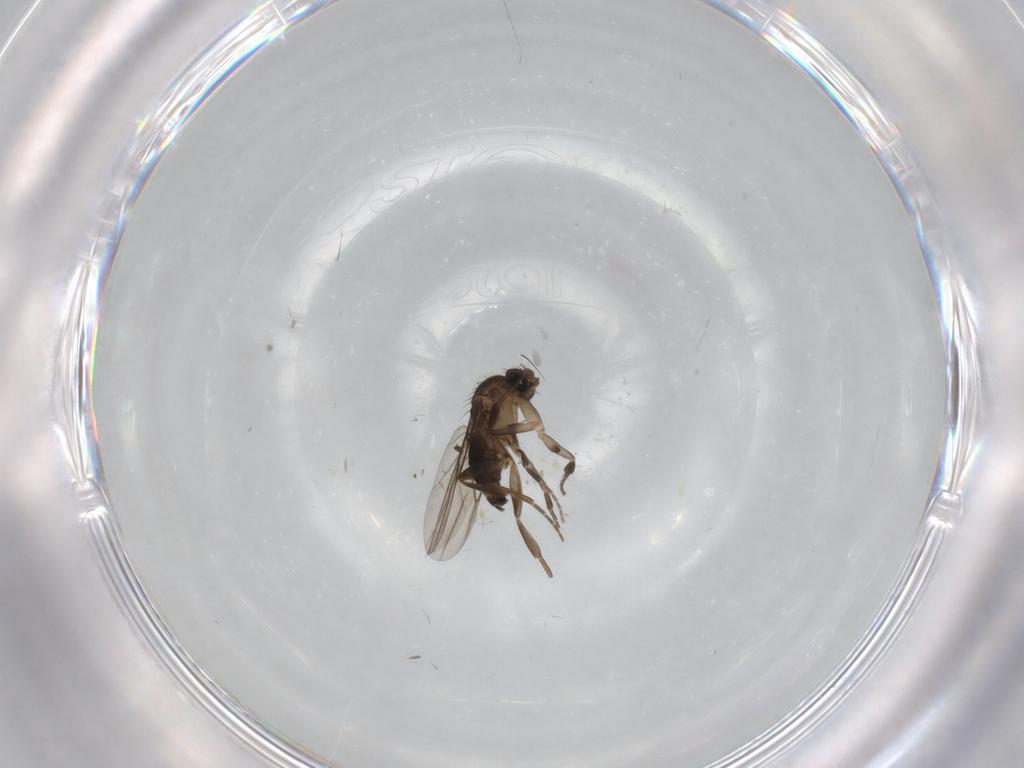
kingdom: Animalia
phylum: Arthropoda
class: Insecta
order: Diptera
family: Phoridae
